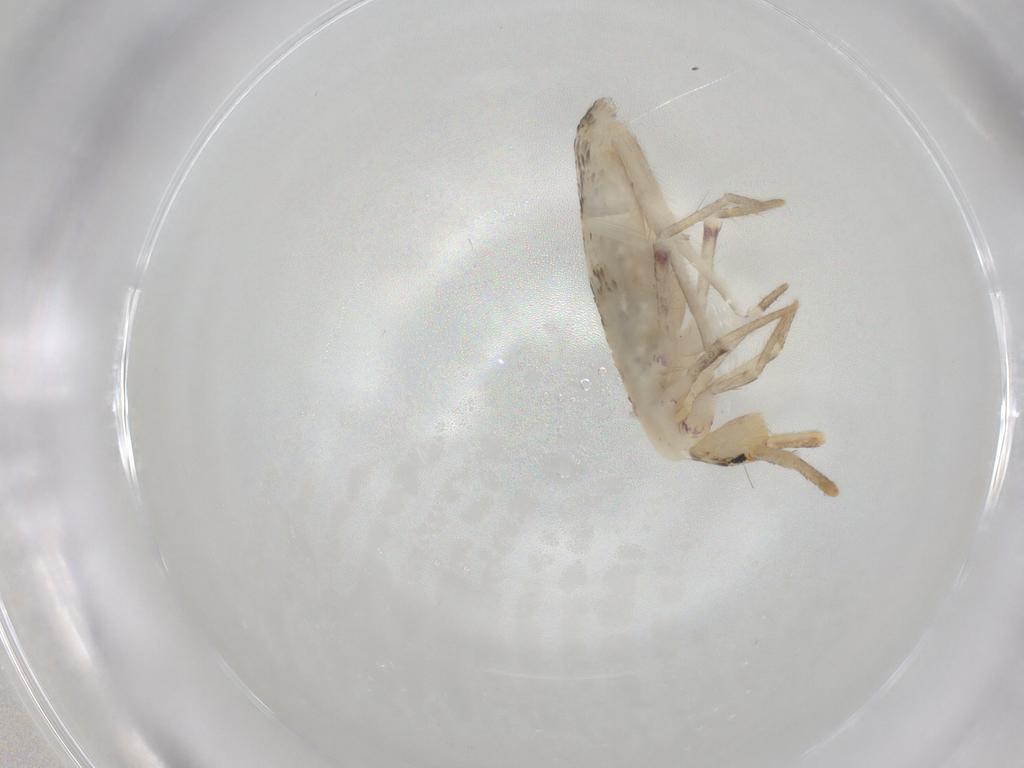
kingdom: Animalia
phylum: Arthropoda
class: Collembola
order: Poduromorpha
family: Hypogastruridae
